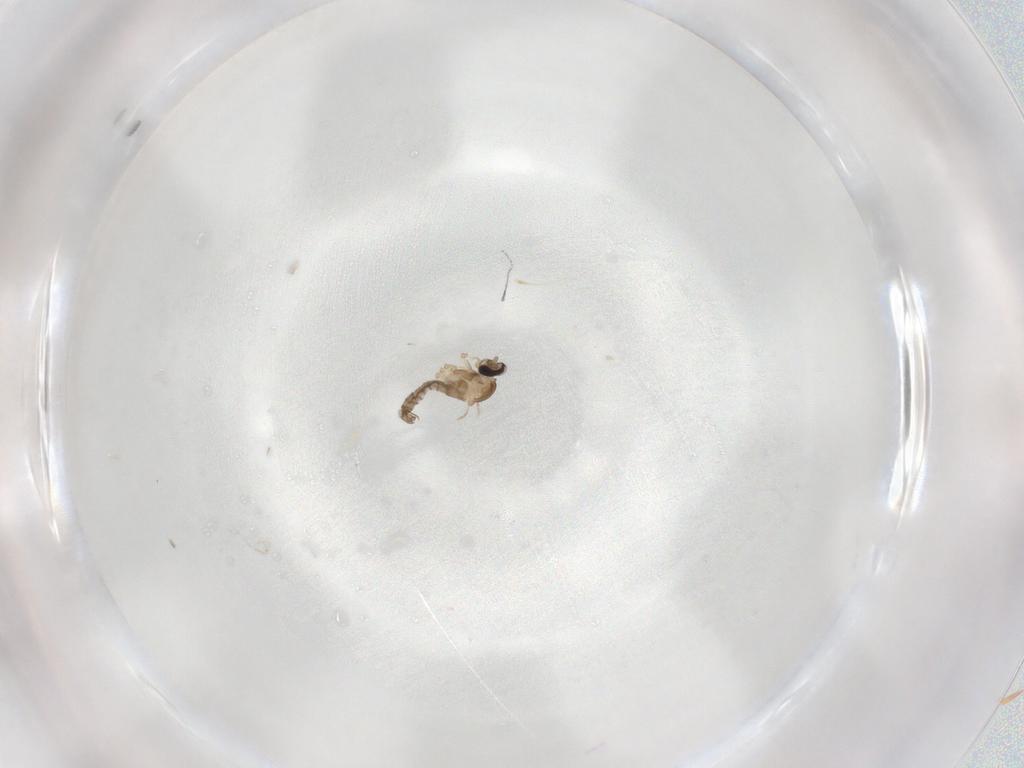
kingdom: Animalia
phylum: Arthropoda
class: Insecta
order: Diptera
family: Cecidomyiidae
